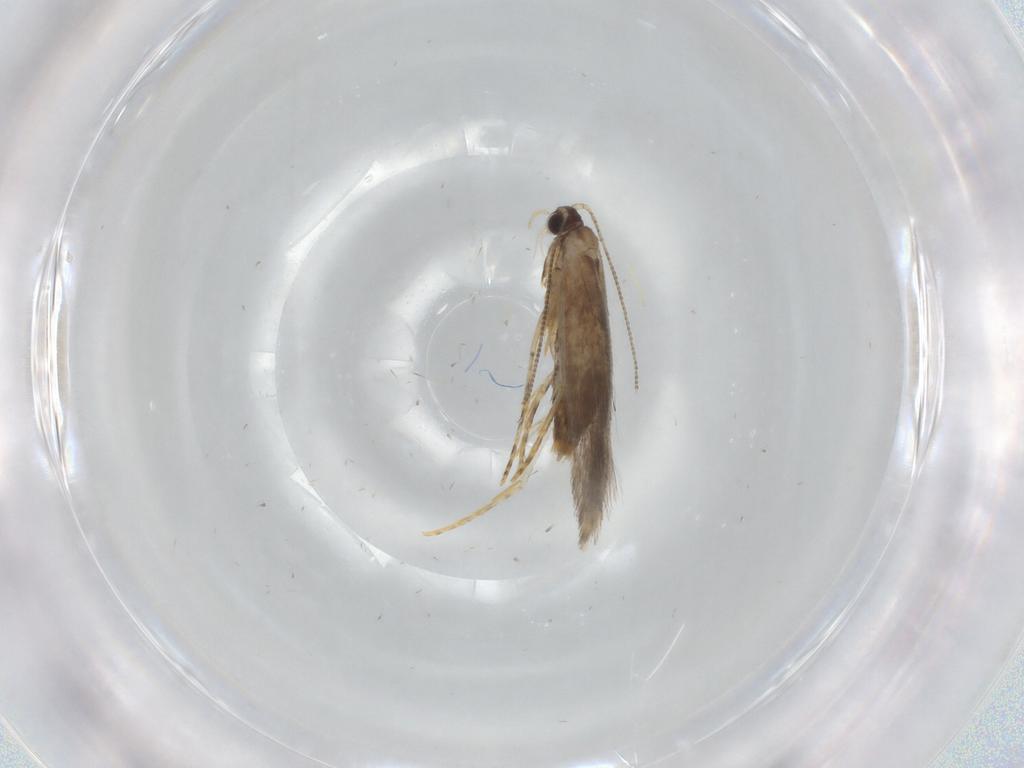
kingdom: Animalia
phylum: Arthropoda
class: Insecta
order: Lepidoptera
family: Tineidae
